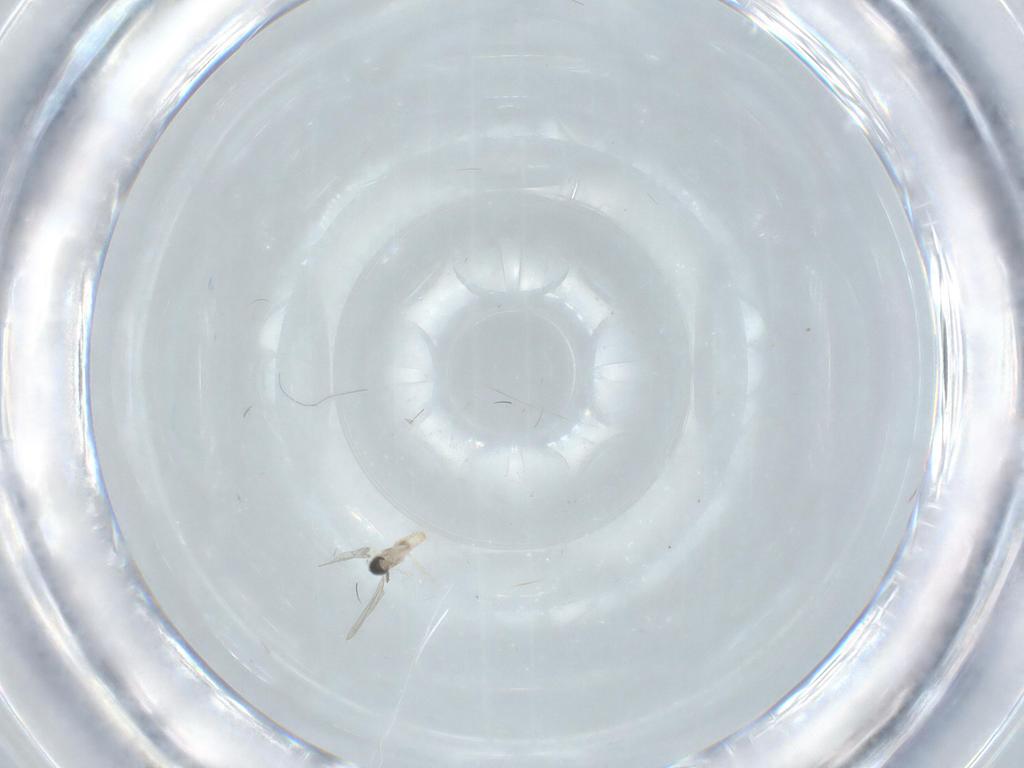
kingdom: Animalia
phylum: Arthropoda
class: Insecta
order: Diptera
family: Cecidomyiidae
